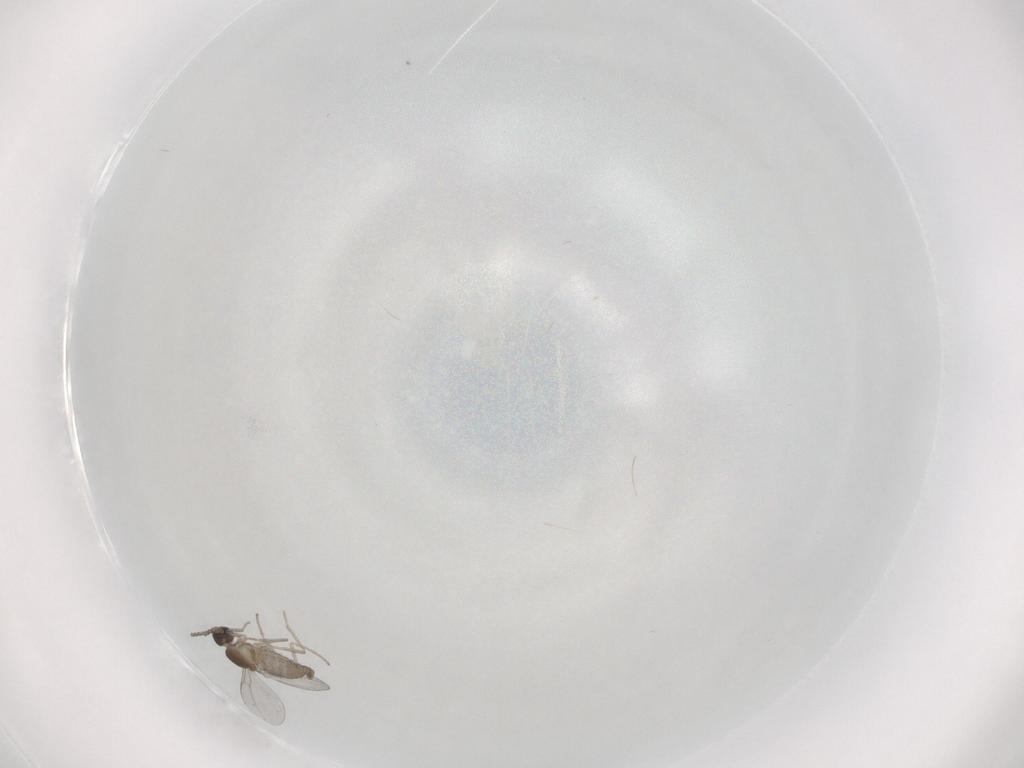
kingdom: Animalia
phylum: Arthropoda
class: Insecta
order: Diptera
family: Cecidomyiidae
